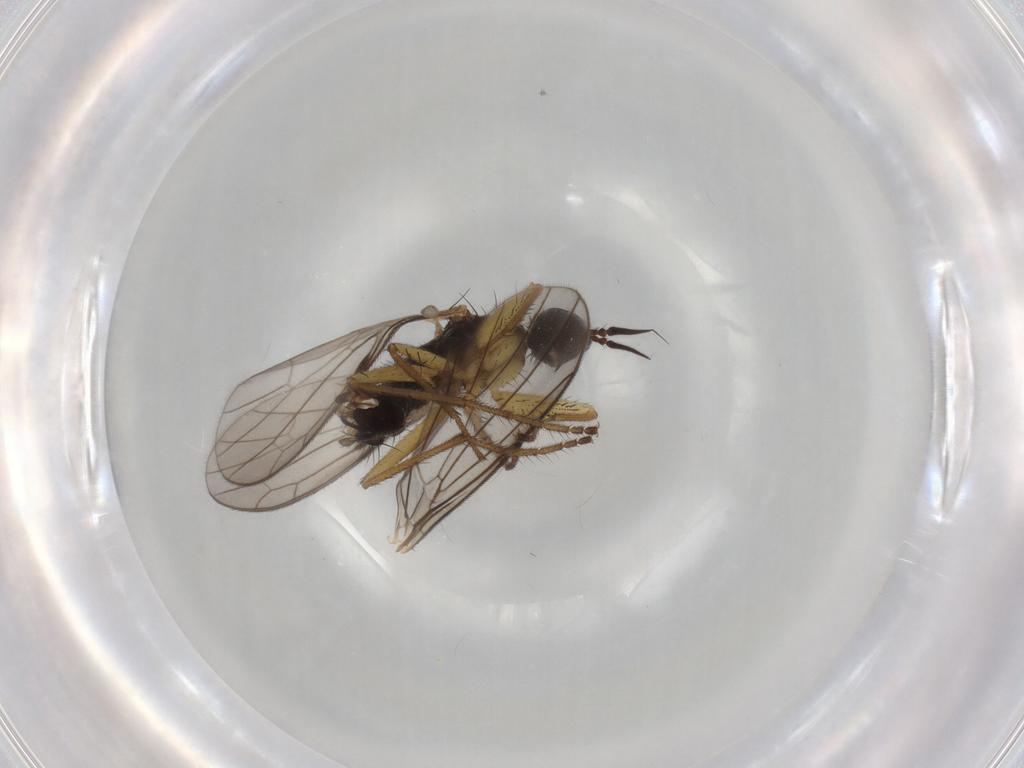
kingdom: Animalia
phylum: Arthropoda
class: Insecta
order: Diptera
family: Chironomidae
